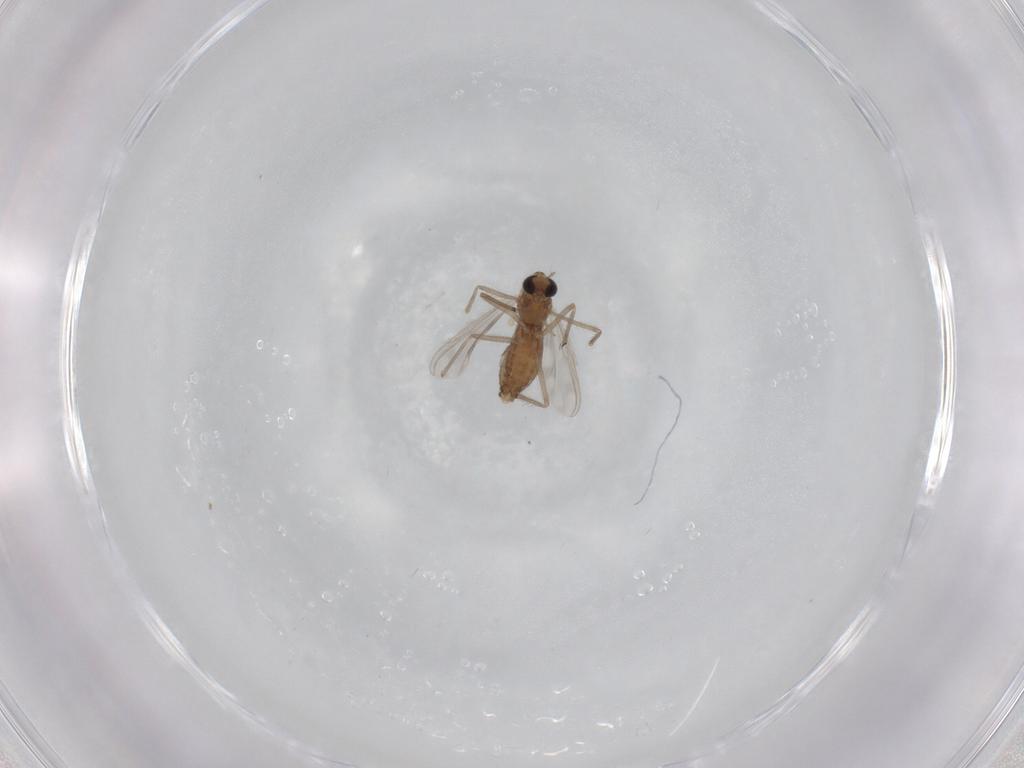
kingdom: Animalia
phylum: Arthropoda
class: Insecta
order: Diptera
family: Chironomidae
